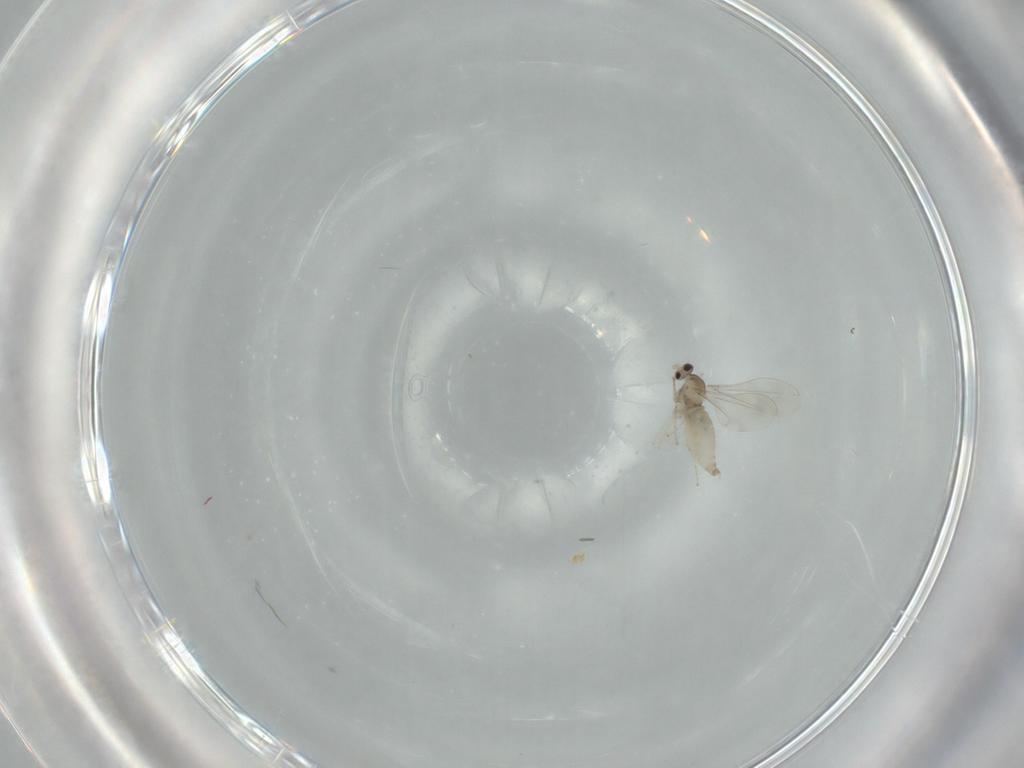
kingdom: Animalia
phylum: Arthropoda
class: Insecta
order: Diptera
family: Cecidomyiidae
